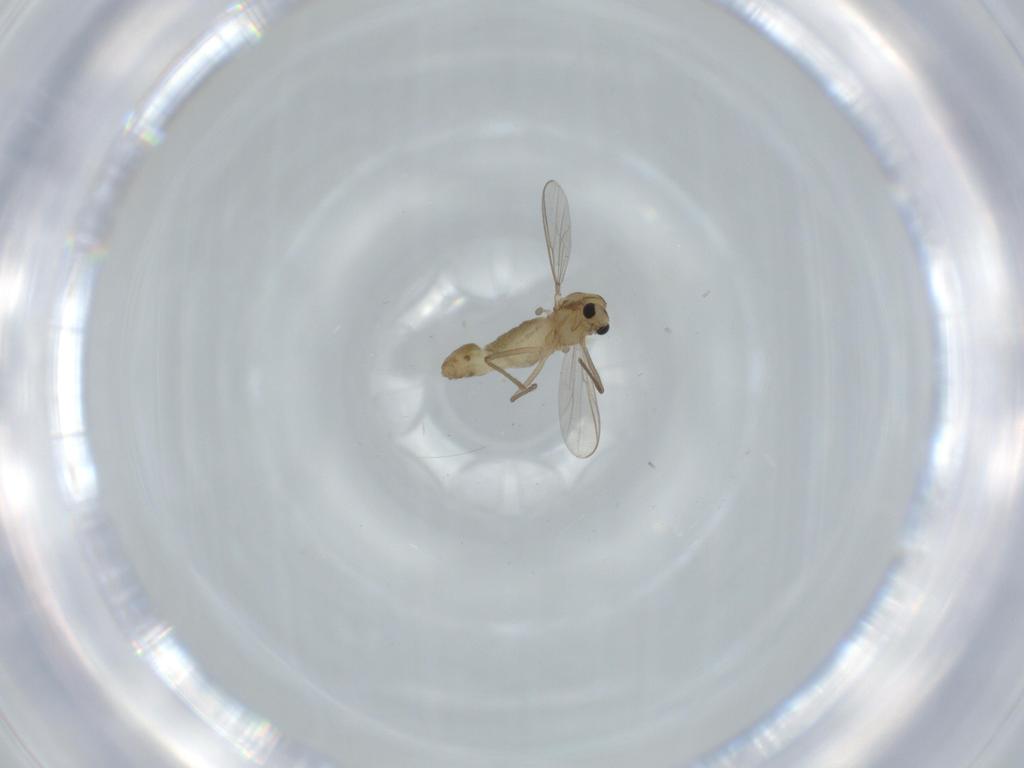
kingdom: Animalia
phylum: Arthropoda
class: Insecta
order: Diptera
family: Chironomidae
